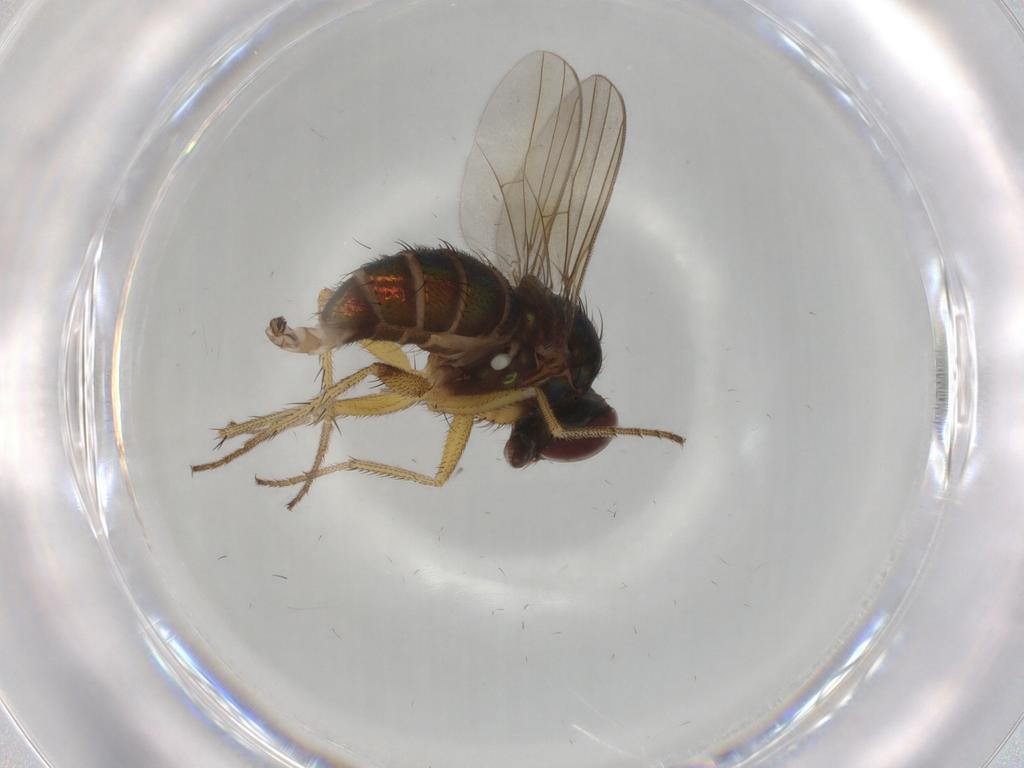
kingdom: Animalia
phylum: Arthropoda
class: Insecta
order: Diptera
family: Dolichopodidae
